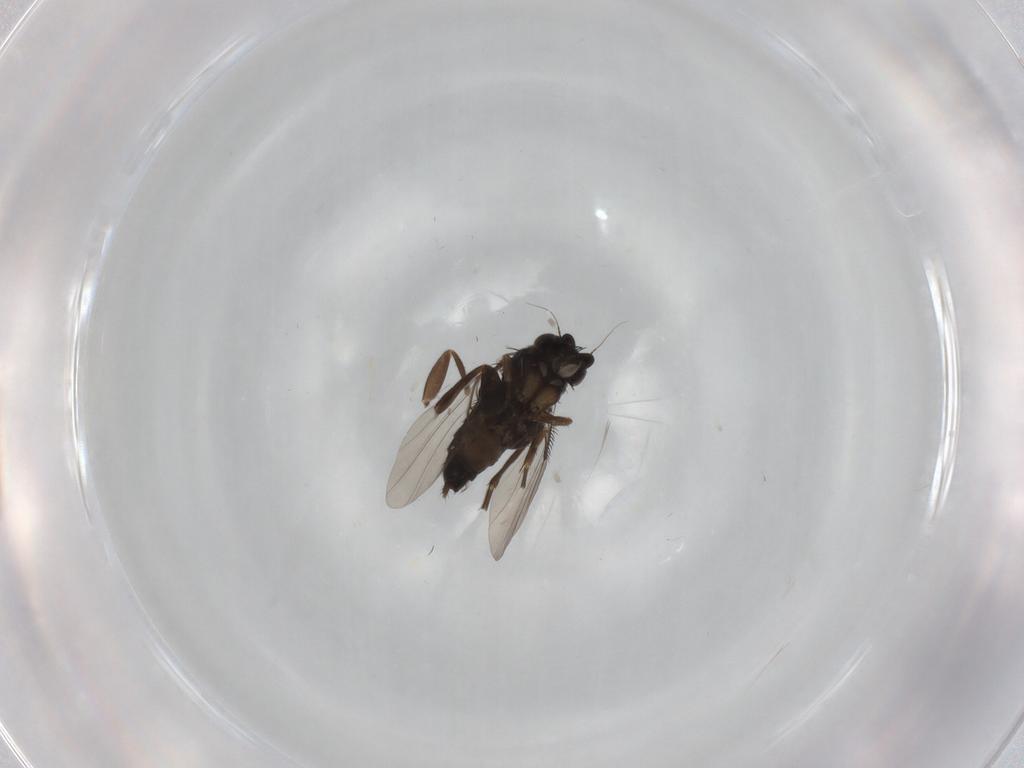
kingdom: Animalia
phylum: Arthropoda
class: Insecta
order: Diptera
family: Phoridae
